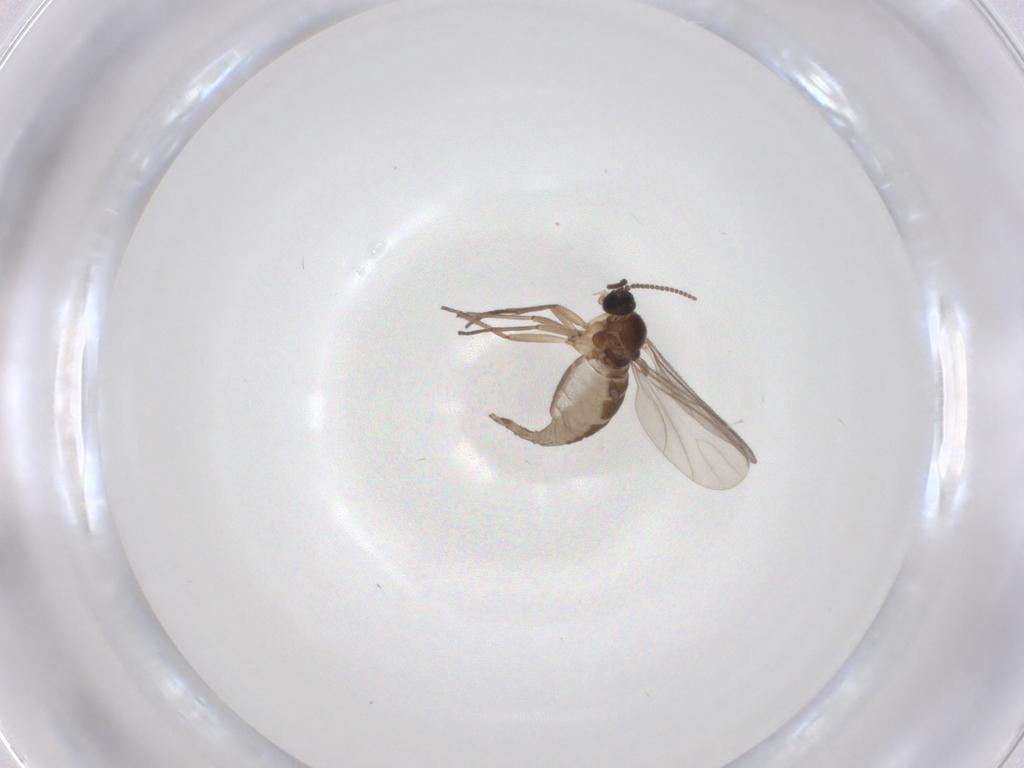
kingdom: Animalia
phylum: Arthropoda
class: Insecta
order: Diptera
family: Sciaridae
